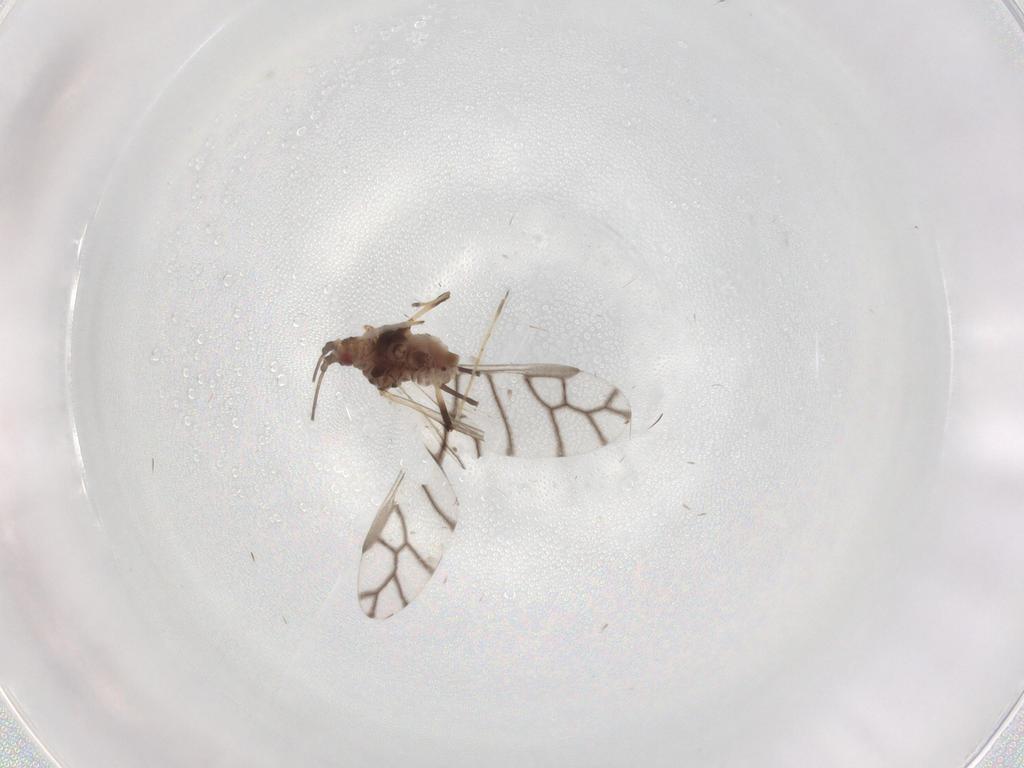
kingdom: Animalia
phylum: Arthropoda
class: Insecta
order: Hemiptera
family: Aphididae
